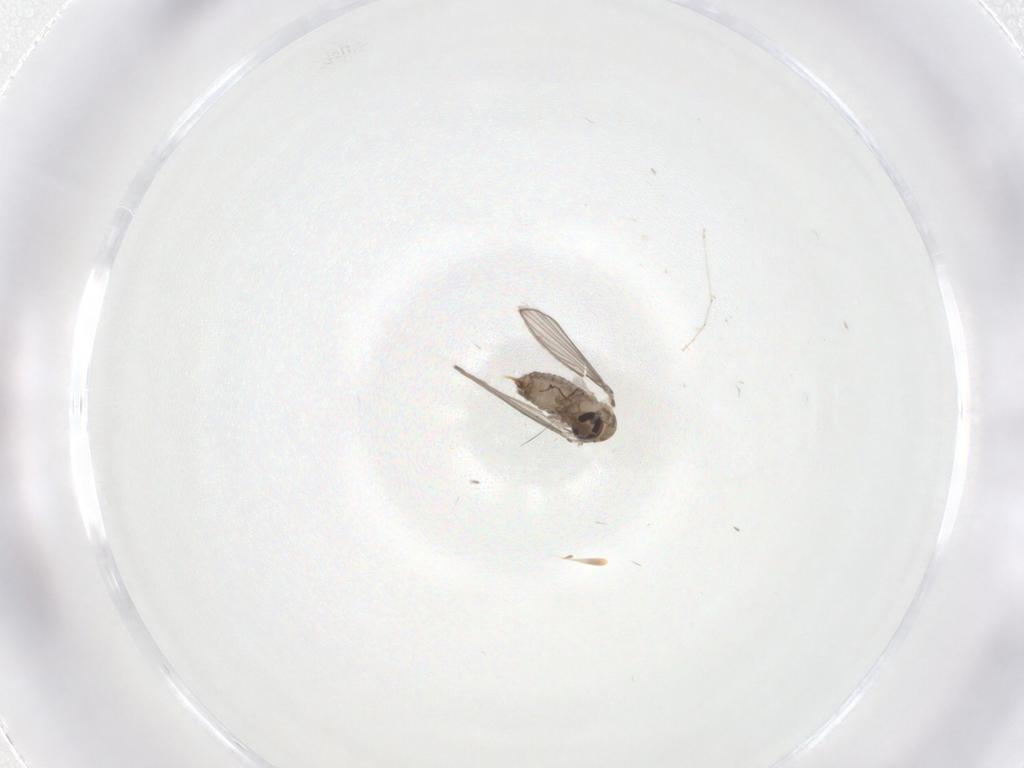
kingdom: Animalia
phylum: Arthropoda
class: Insecta
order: Diptera
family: Psychodidae
